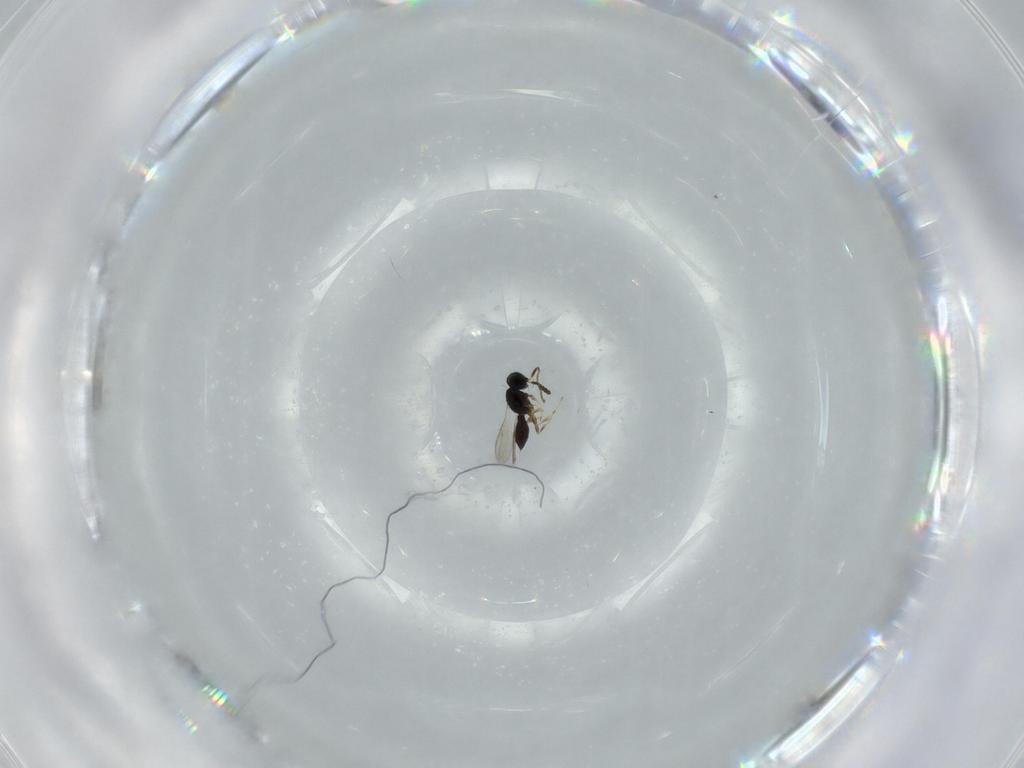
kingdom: Animalia
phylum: Arthropoda
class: Insecta
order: Hymenoptera
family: Scelionidae
